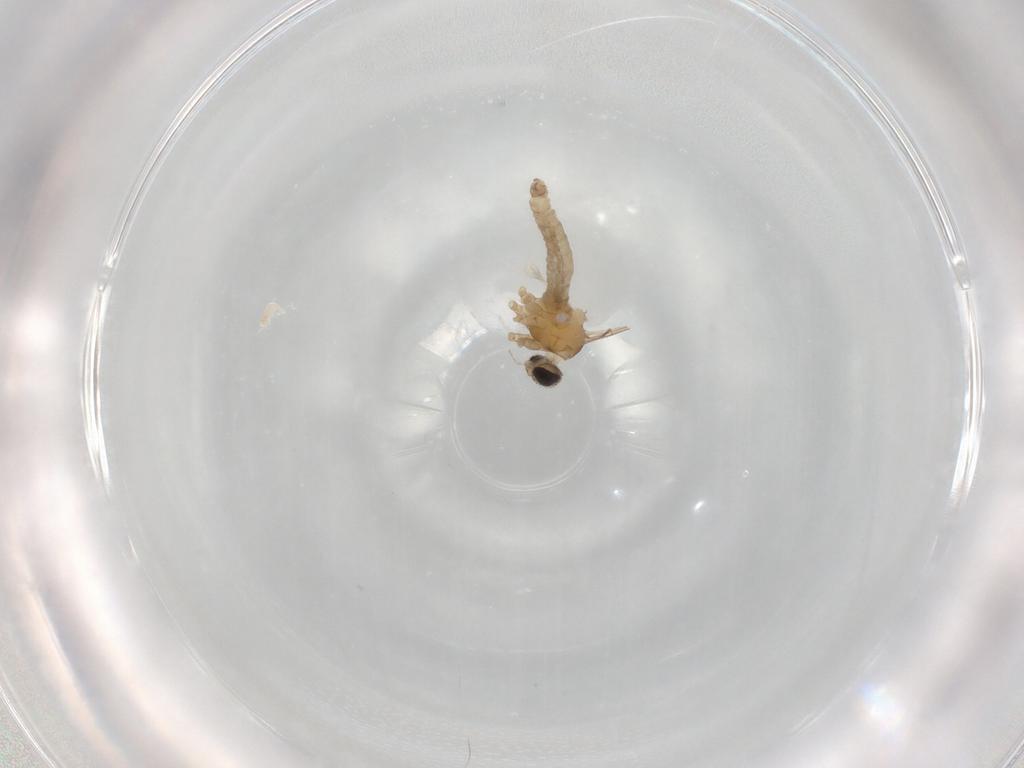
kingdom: Animalia
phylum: Arthropoda
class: Insecta
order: Diptera
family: Cecidomyiidae
